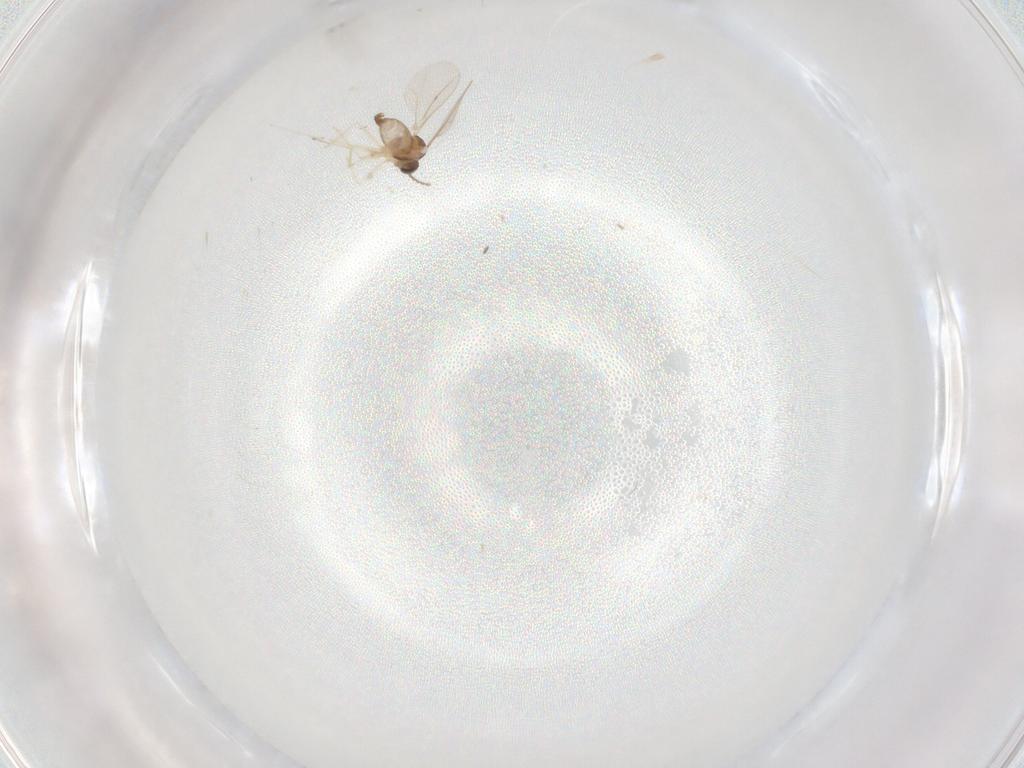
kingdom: Animalia
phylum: Arthropoda
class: Insecta
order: Diptera
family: Cecidomyiidae
